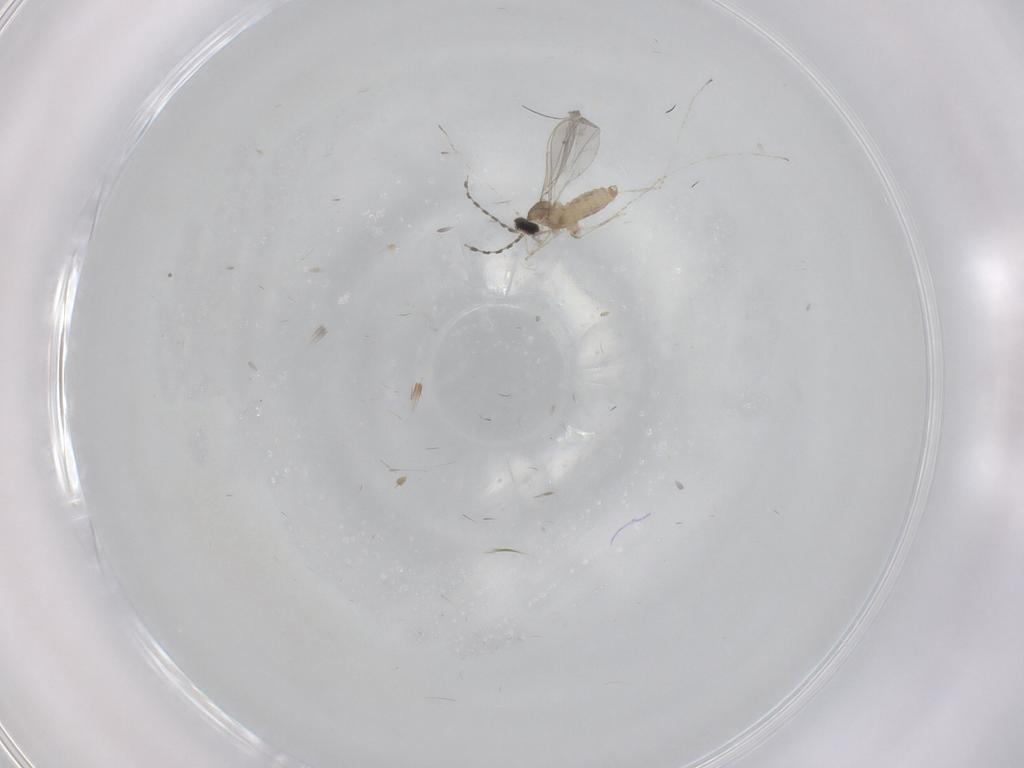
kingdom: Animalia
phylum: Arthropoda
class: Insecta
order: Diptera
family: Cecidomyiidae
